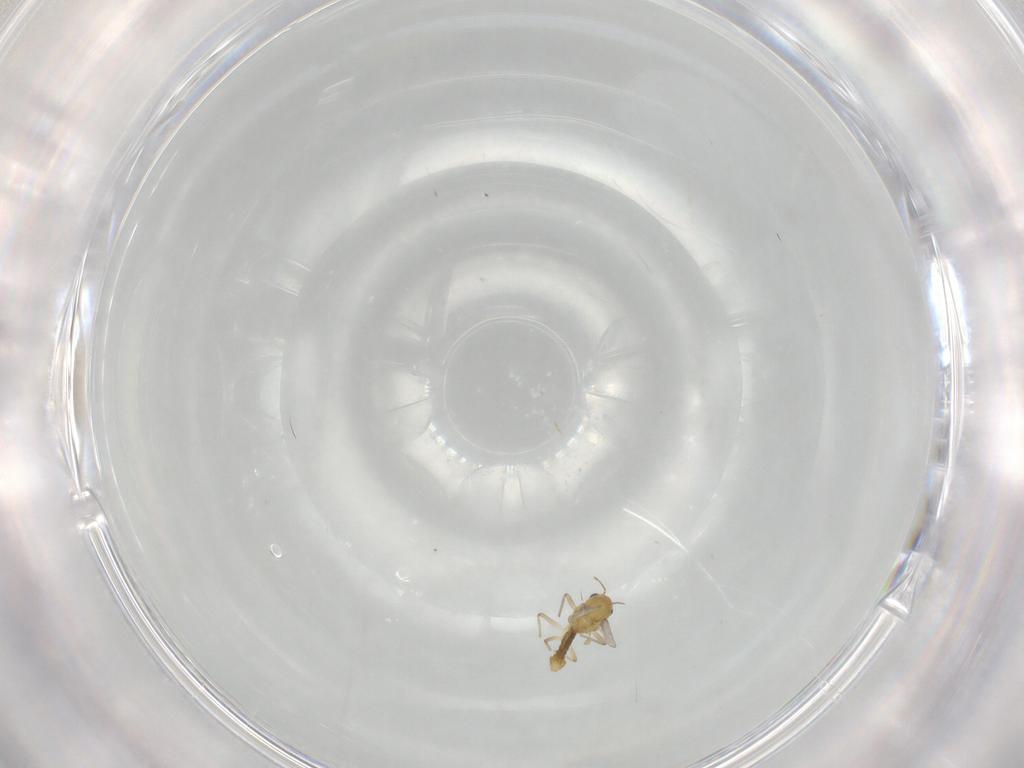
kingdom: Animalia
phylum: Arthropoda
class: Insecta
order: Diptera
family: Chironomidae
